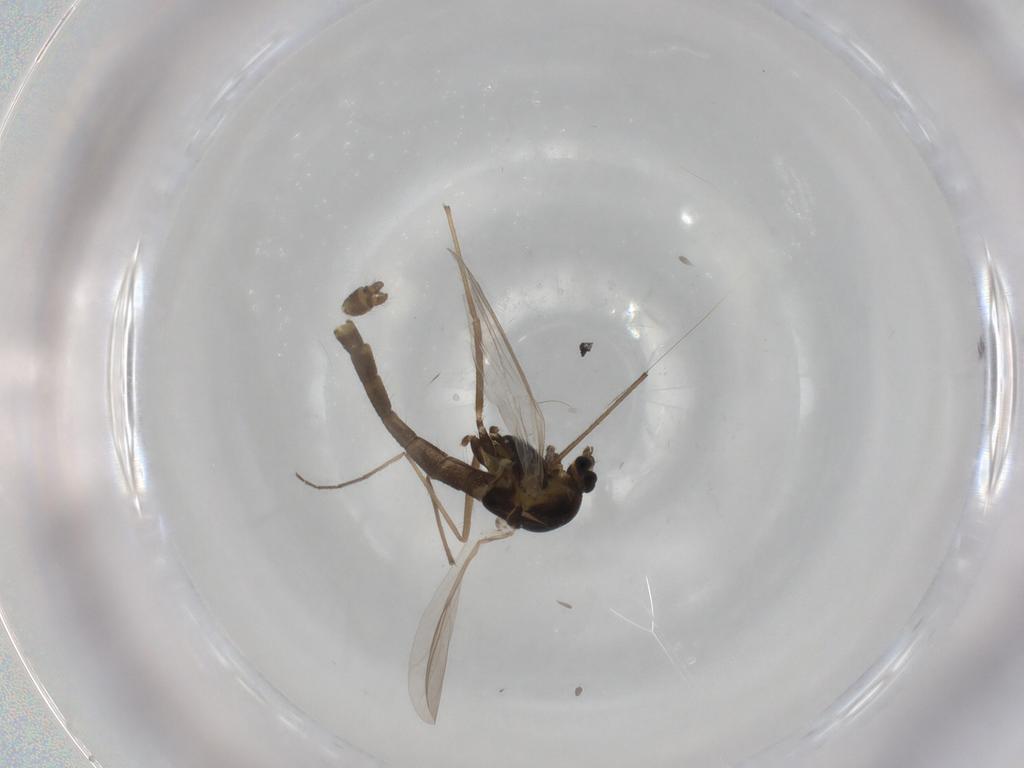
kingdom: Animalia
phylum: Arthropoda
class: Insecta
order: Diptera
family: Chironomidae
